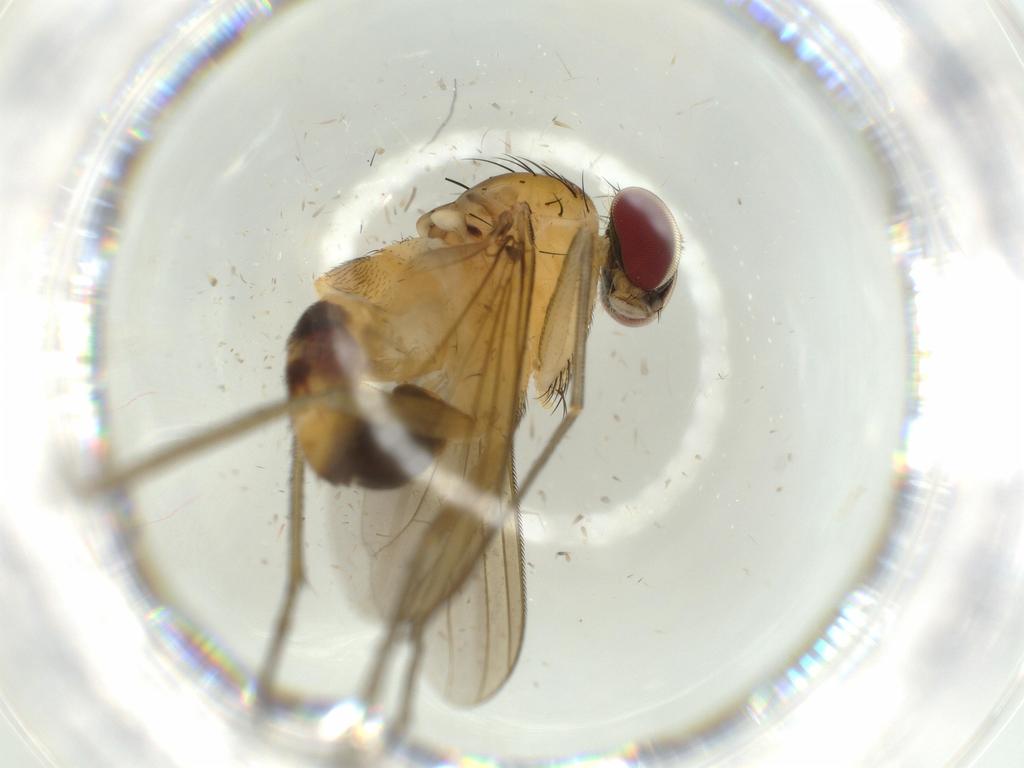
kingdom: Animalia
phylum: Arthropoda
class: Insecta
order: Diptera
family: Dolichopodidae
